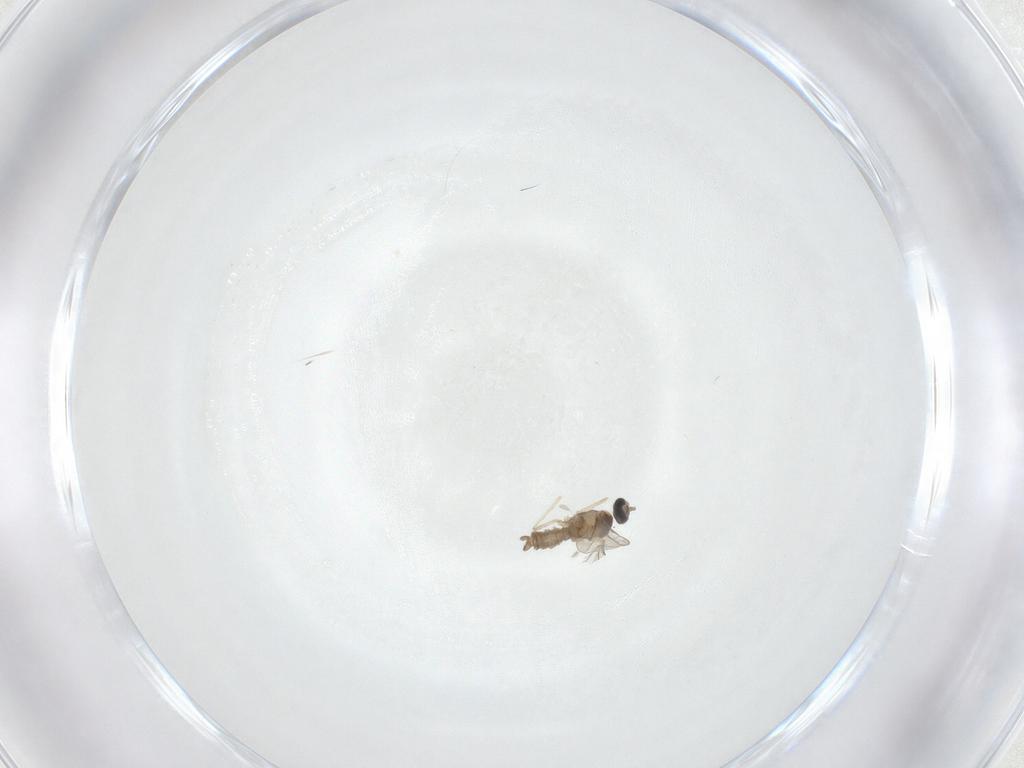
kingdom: Animalia
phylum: Arthropoda
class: Insecta
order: Diptera
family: Cecidomyiidae
